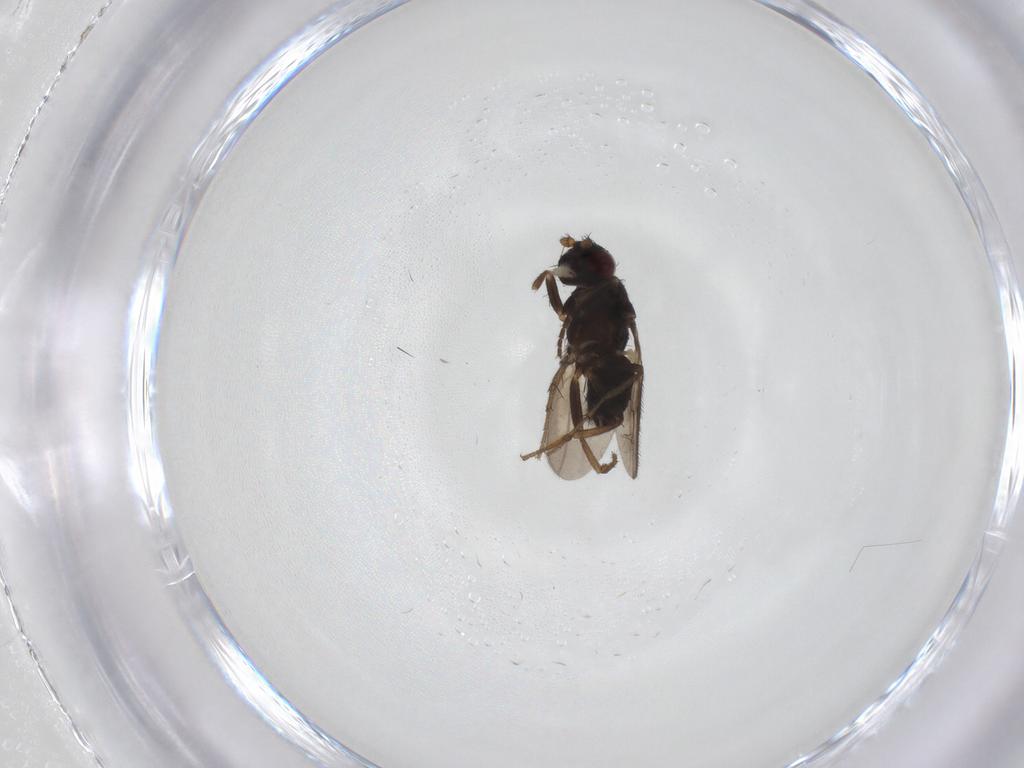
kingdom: Animalia
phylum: Arthropoda
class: Insecta
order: Diptera
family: Sphaeroceridae
